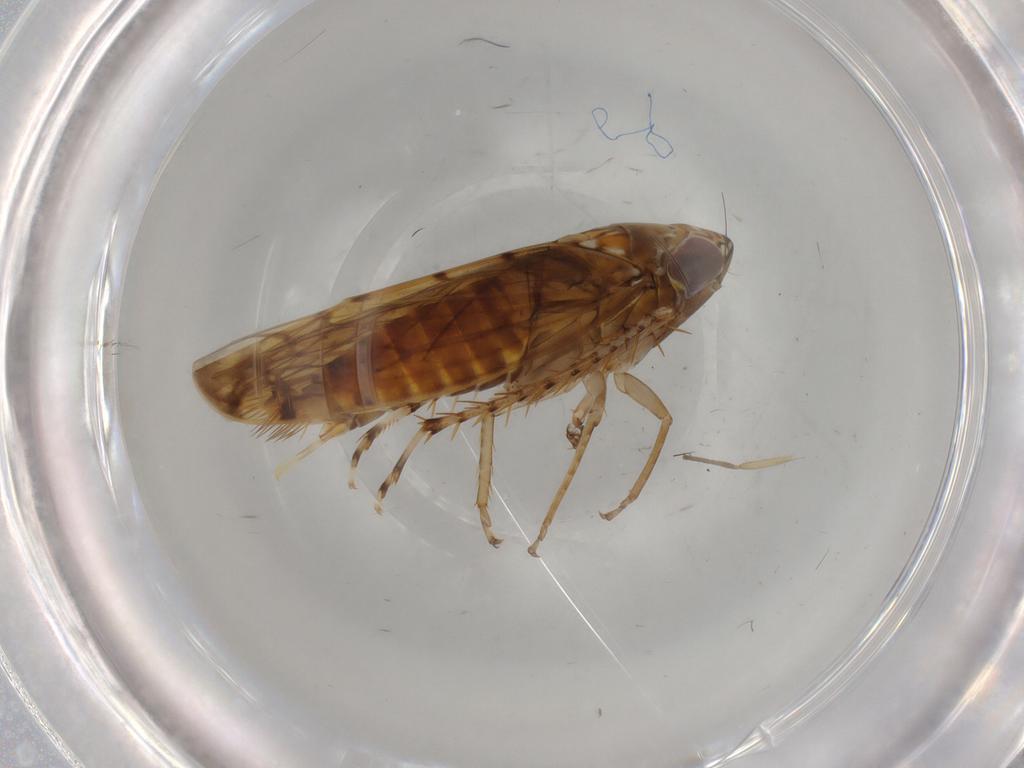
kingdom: Animalia
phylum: Arthropoda
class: Insecta
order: Hemiptera
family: Cicadellidae
